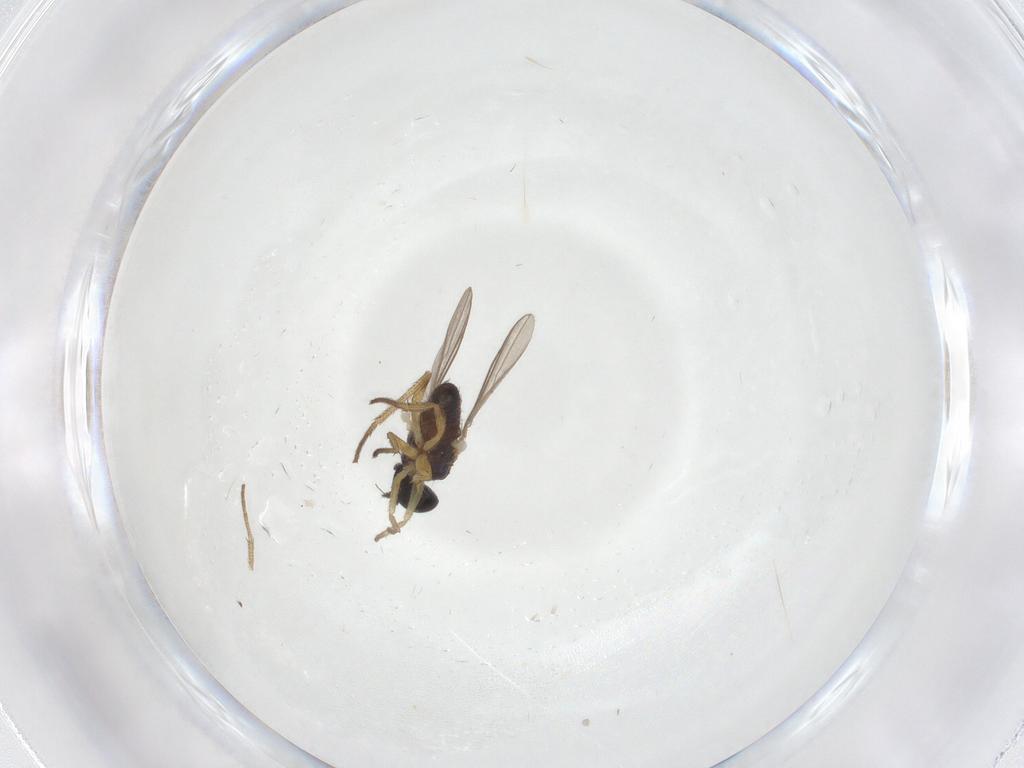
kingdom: Animalia
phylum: Arthropoda
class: Insecta
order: Diptera
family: Dolichopodidae
